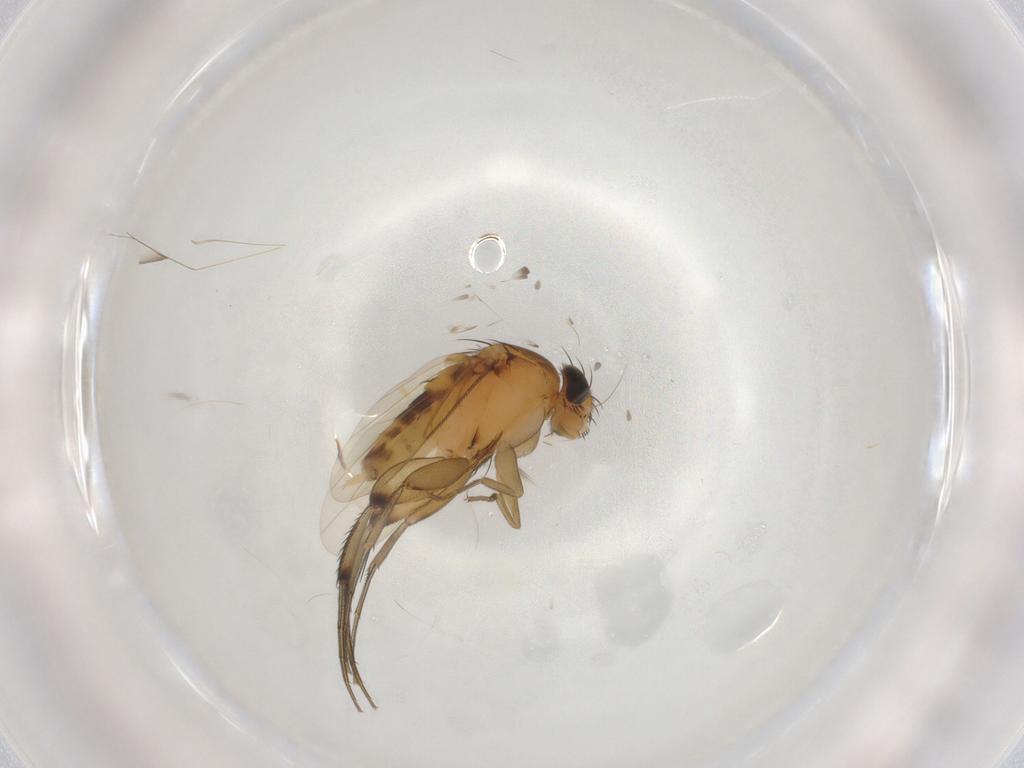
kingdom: Animalia
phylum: Arthropoda
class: Insecta
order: Diptera
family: Phoridae
